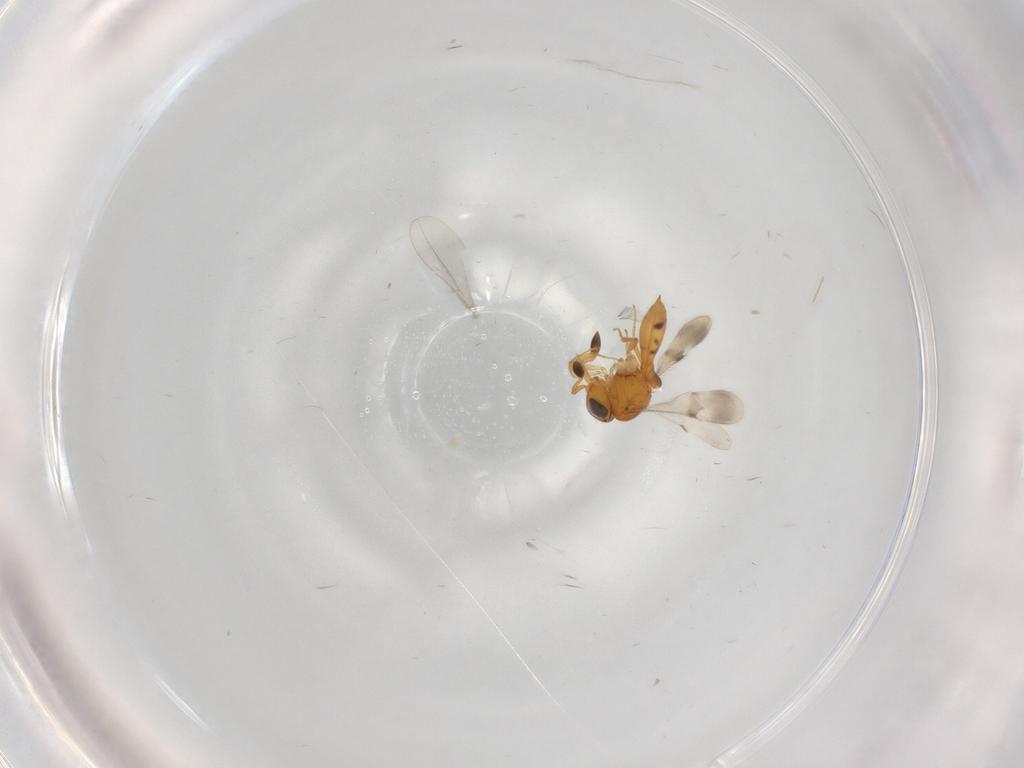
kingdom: Animalia
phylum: Arthropoda
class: Insecta
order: Hymenoptera
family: Scelionidae
